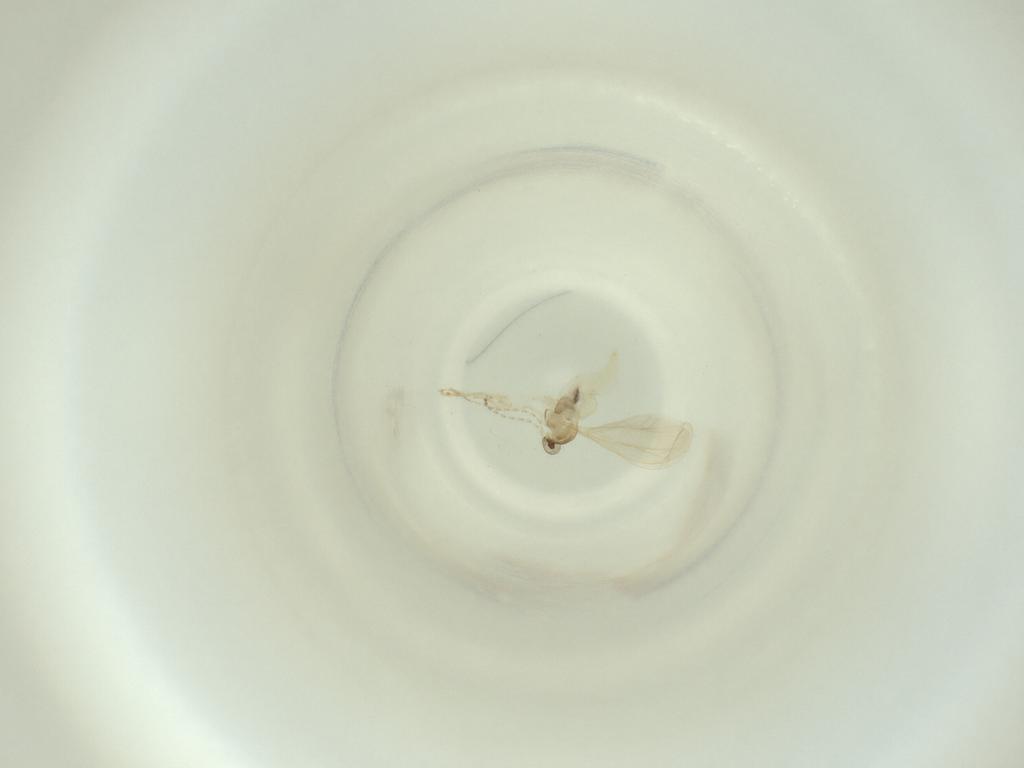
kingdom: Animalia
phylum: Arthropoda
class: Insecta
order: Diptera
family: Cecidomyiidae
